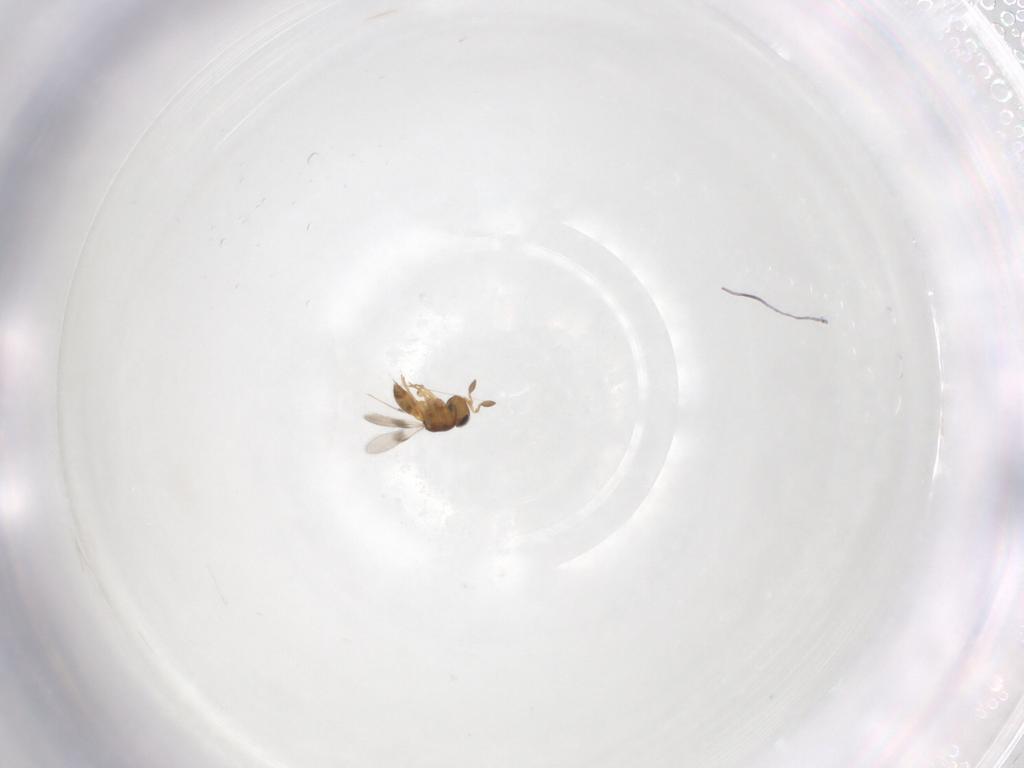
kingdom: Animalia
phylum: Arthropoda
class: Insecta
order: Hymenoptera
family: Scelionidae
